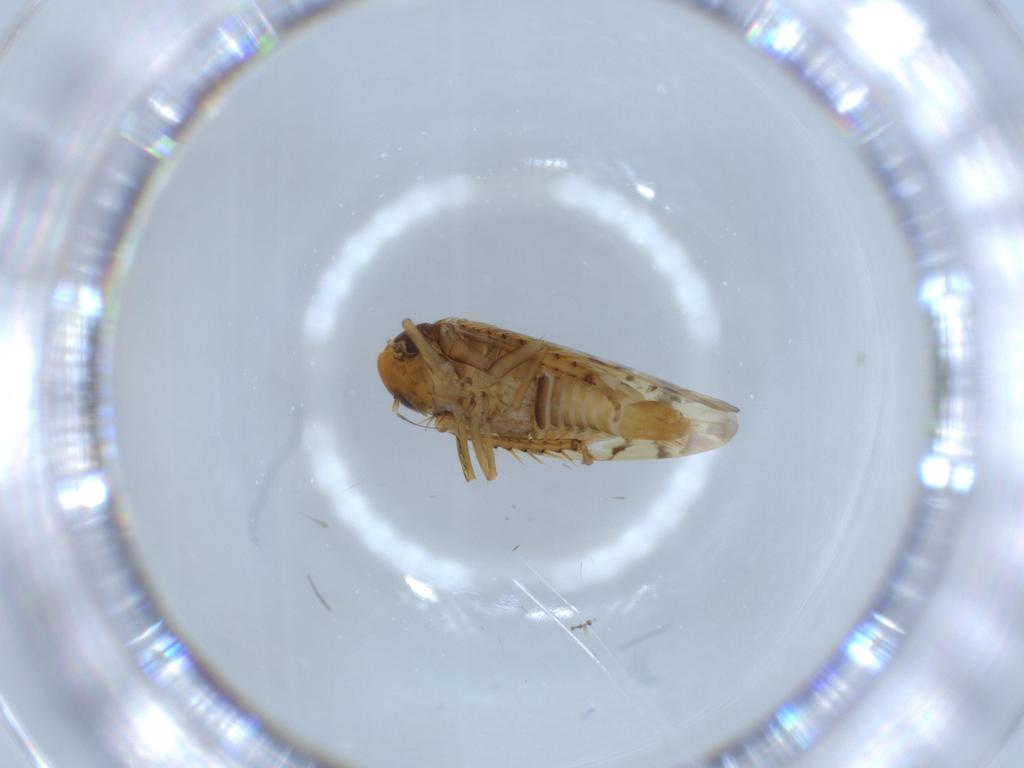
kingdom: Animalia
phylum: Arthropoda
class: Insecta
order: Hemiptera
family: Cicadellidae
